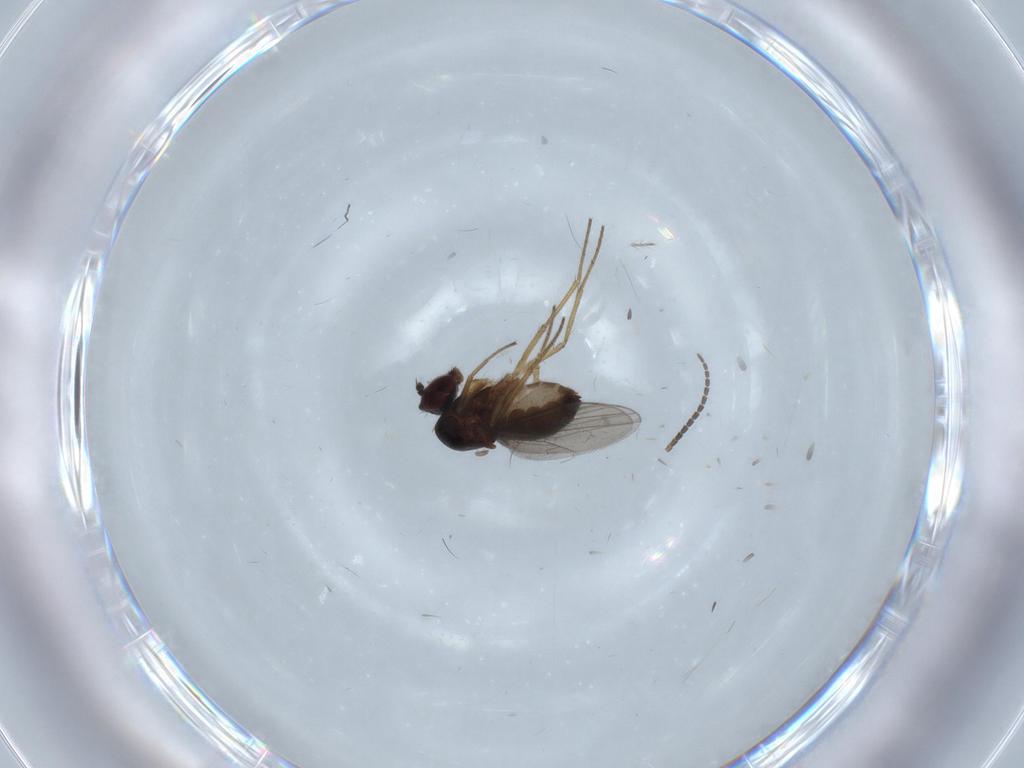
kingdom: Animalia
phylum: Arthropoda
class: Insecta
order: Diptera
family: Dolichopodidae
